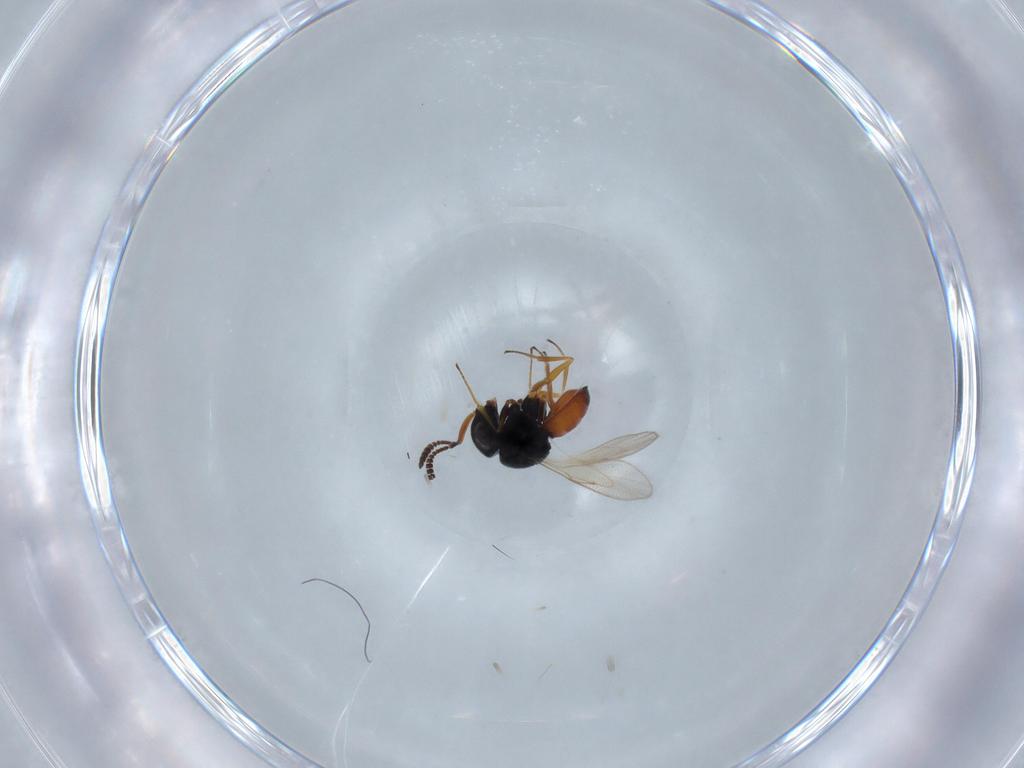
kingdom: Animalia
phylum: Arthropoda
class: Insecta
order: Hymenoptera
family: Scelionidae
